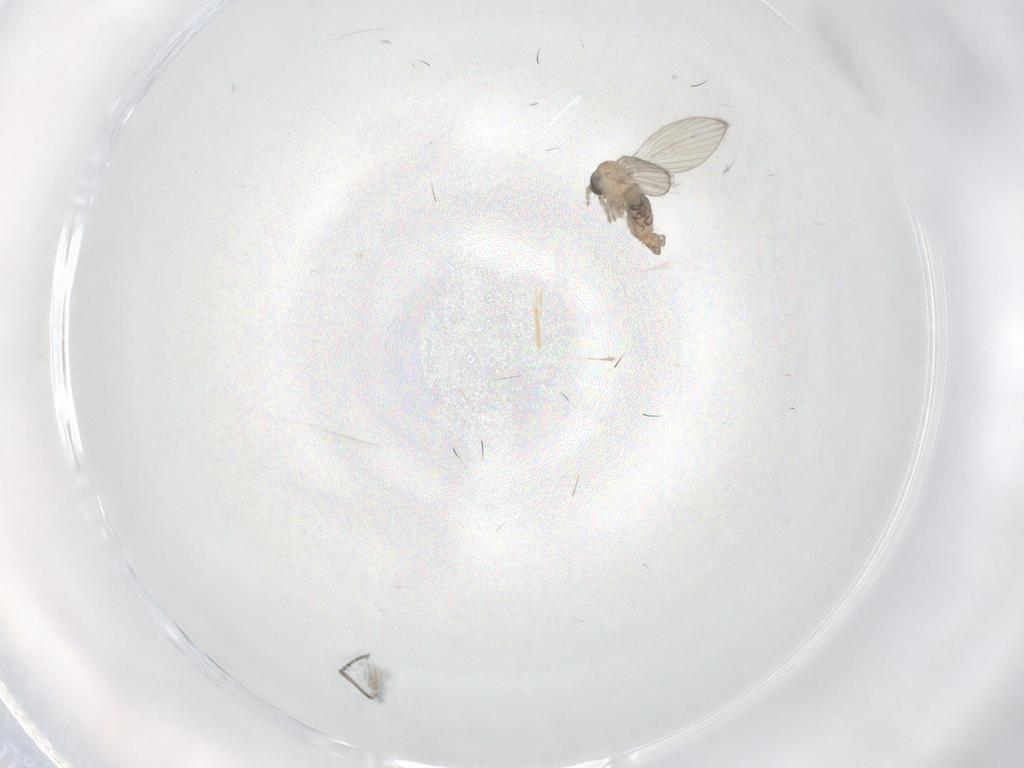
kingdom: Animalia
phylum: Arthropoda
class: Insecta
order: Diptera
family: Psychodidae
